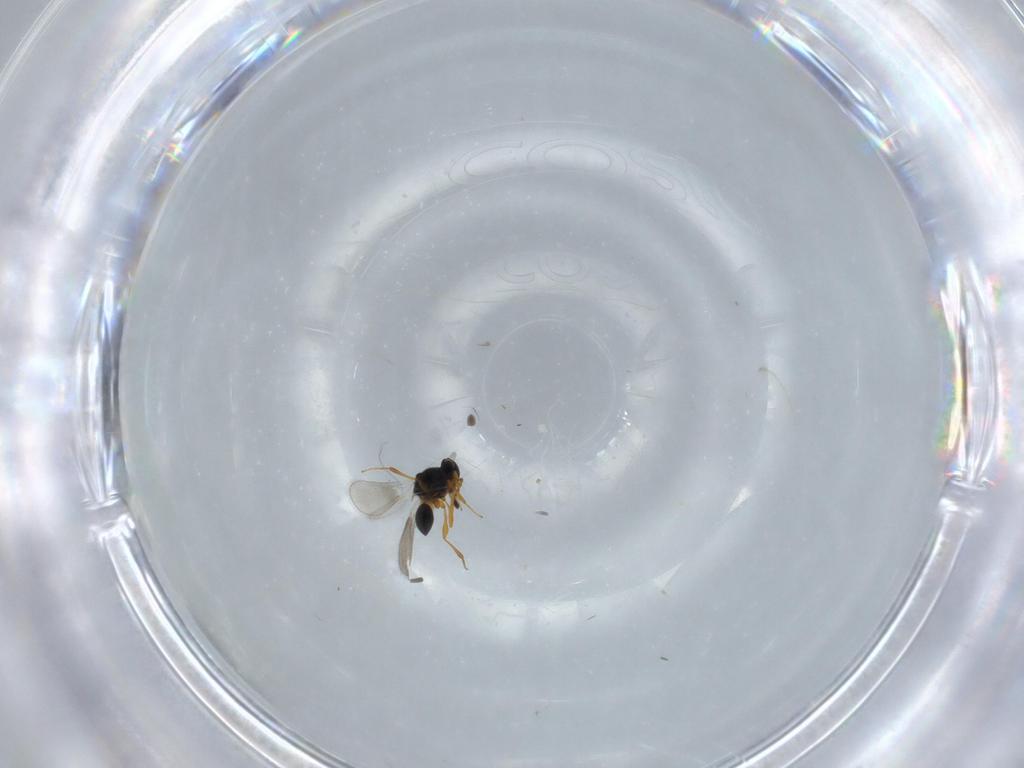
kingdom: Animalia
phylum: Arthropoda
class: Insecta
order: Hymenoptera
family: Platygastridae
